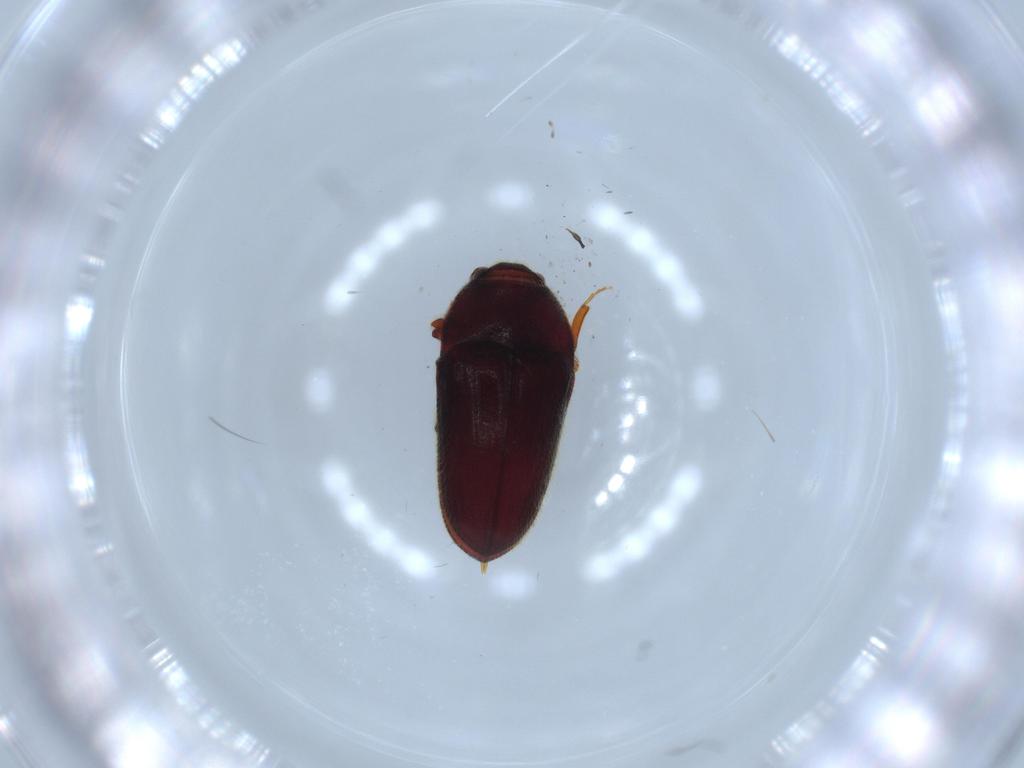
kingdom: Animalia
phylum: Arthropoda
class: Insecta
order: Coleoptera
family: Throscidae
